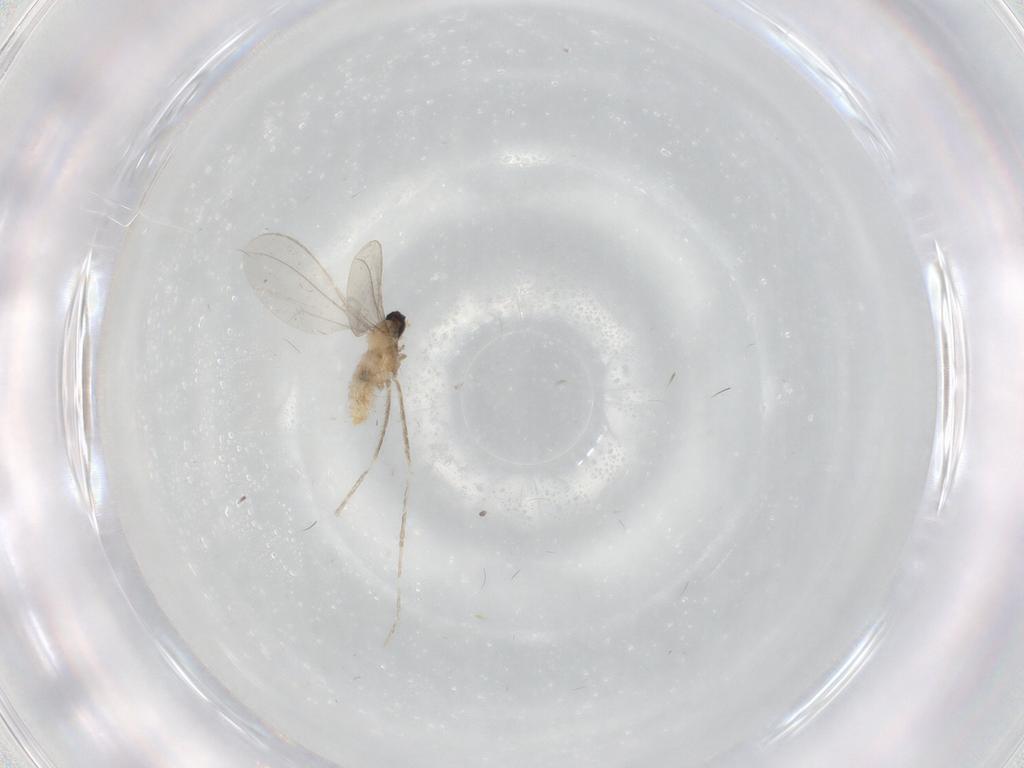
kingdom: Animalia
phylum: Arthropoda
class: Insecta
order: Diptera
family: Cecidomyiidae
